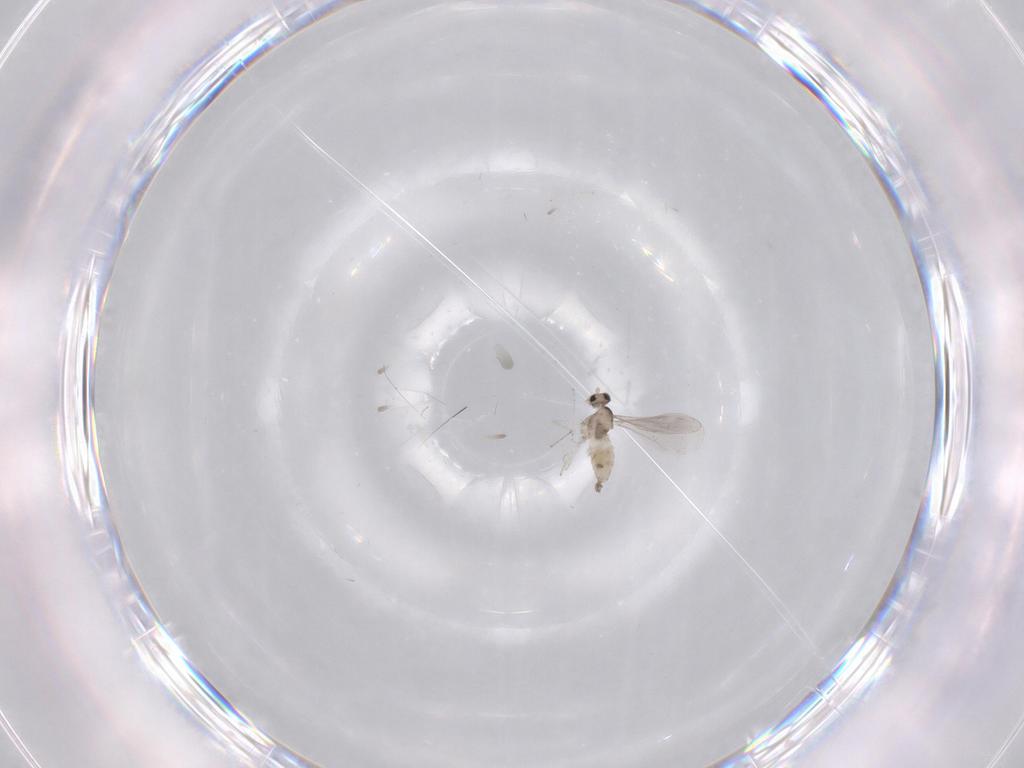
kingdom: Animalia
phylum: Arthropoda
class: Insecta
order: Diptera
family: Cecidomyiidae
